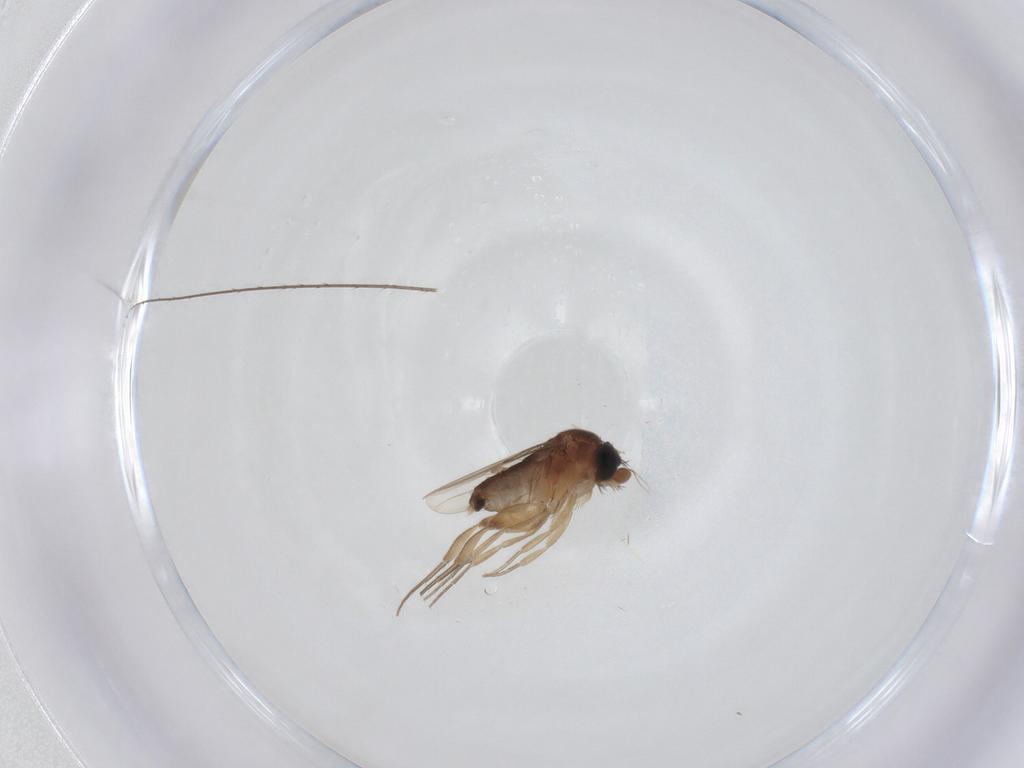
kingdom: Animalia
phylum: Arthropoda
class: Insecta
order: Diptera
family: Phoridae
